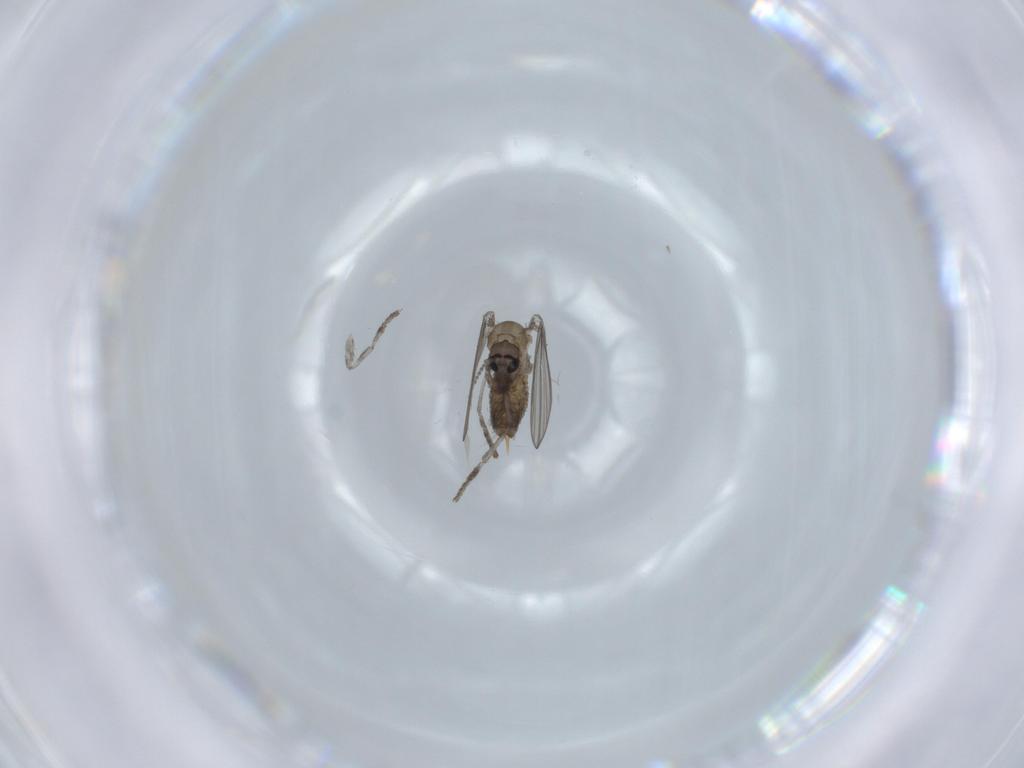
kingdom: Animalia
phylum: Arthropoda
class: Insecta
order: Diptera
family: Psychodidae
